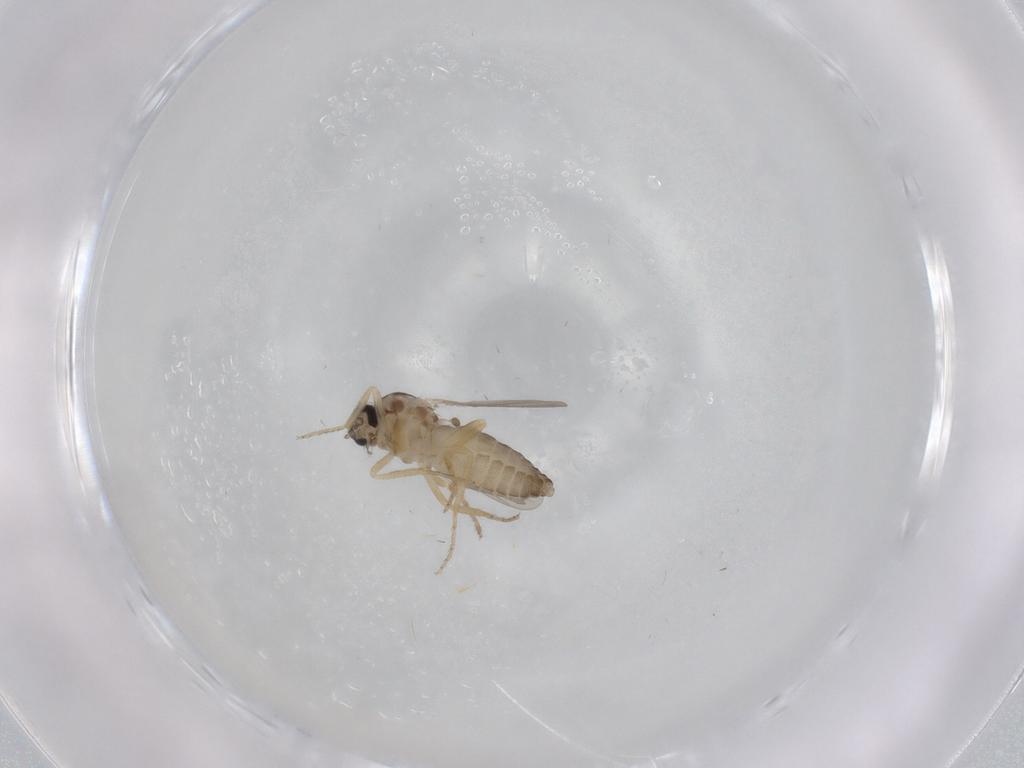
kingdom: Animalia
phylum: Arthropoda
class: Insecta
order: Diptera
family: Ceratopogonidae
